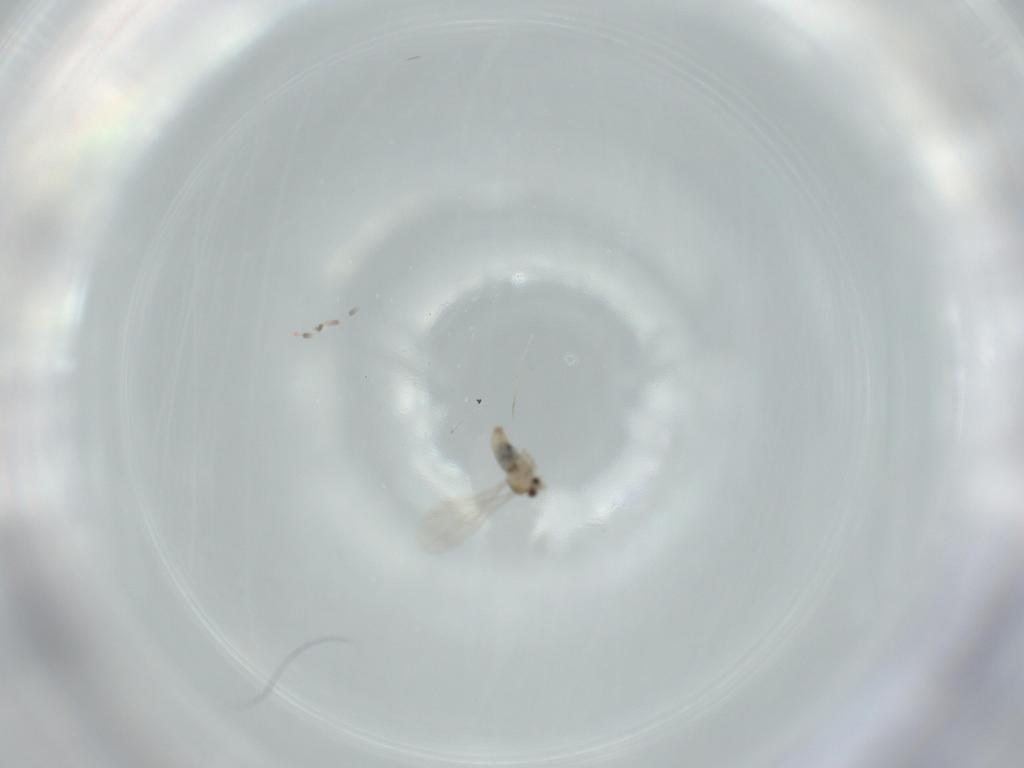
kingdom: Animalia
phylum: Arthropoda
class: Insecta
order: Diptera
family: Cecidomyiidae
